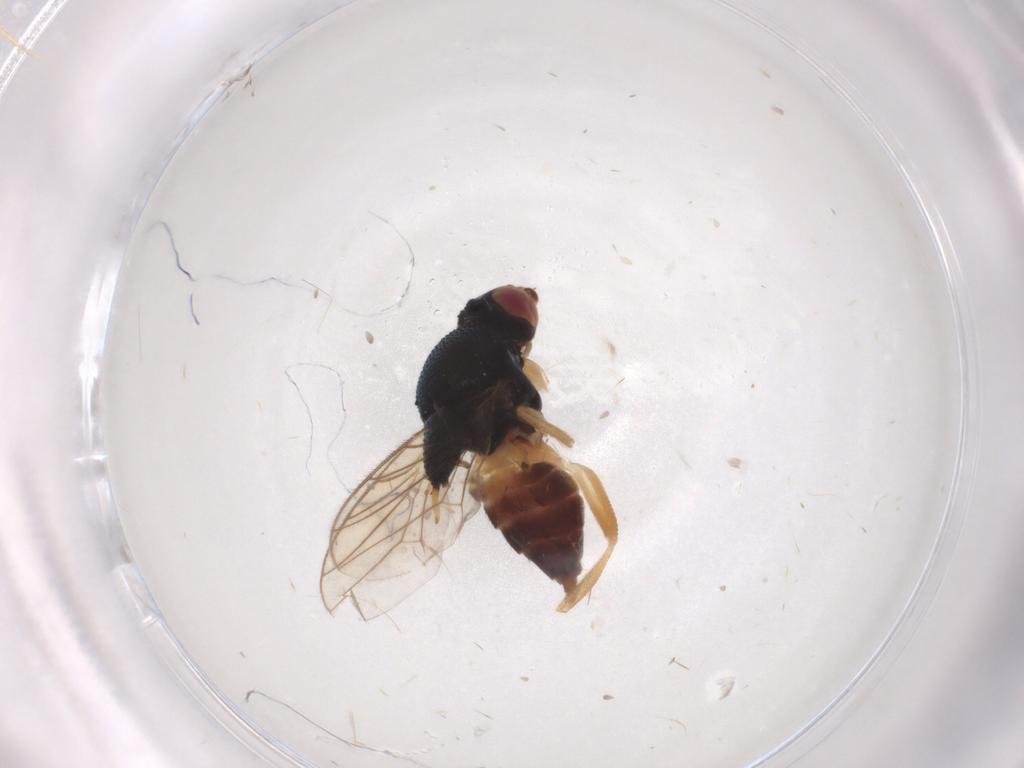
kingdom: Animalia
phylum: Arthropoda
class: Insecta
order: Diptera
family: Chloropidae
